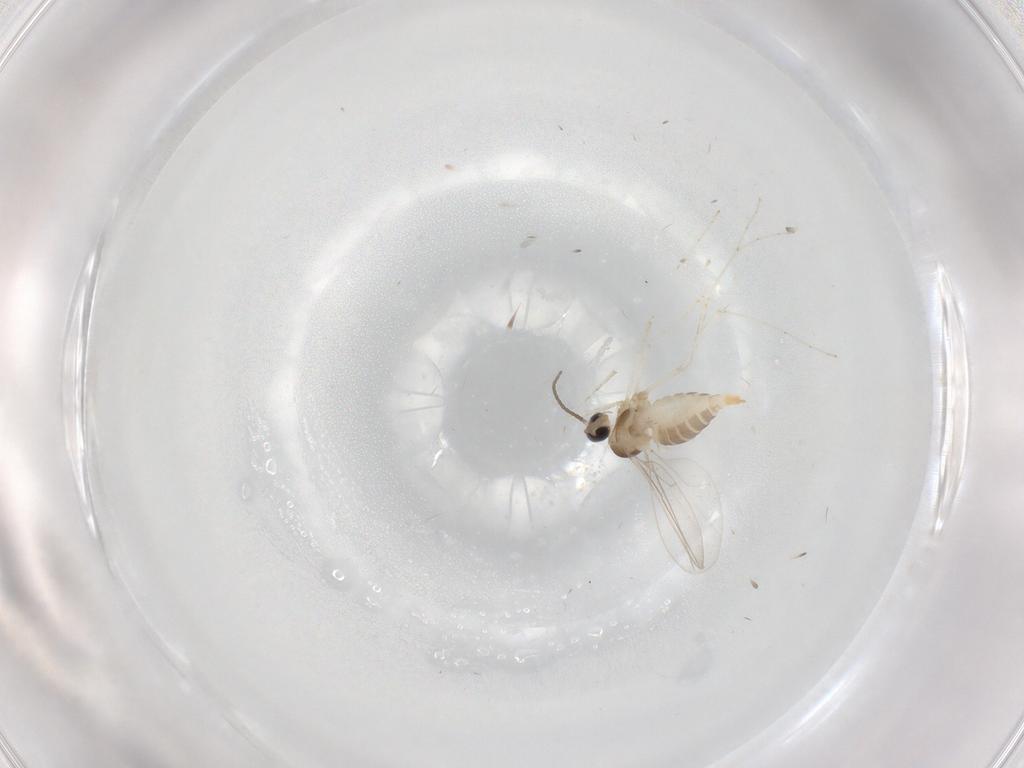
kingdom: Animalia
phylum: Arthropoda
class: Insecta
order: Diptera
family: Cecidomyiidae
